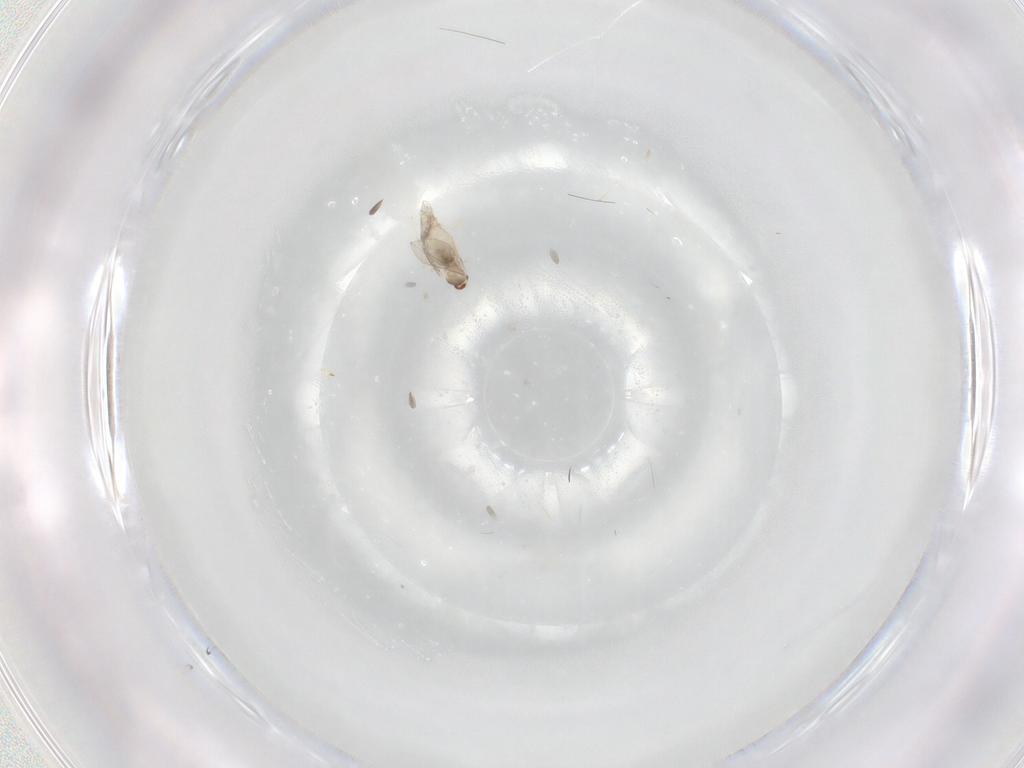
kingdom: Animalia
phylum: Arthropoda
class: Insecta
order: Diptera
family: Cecidomyiidae
